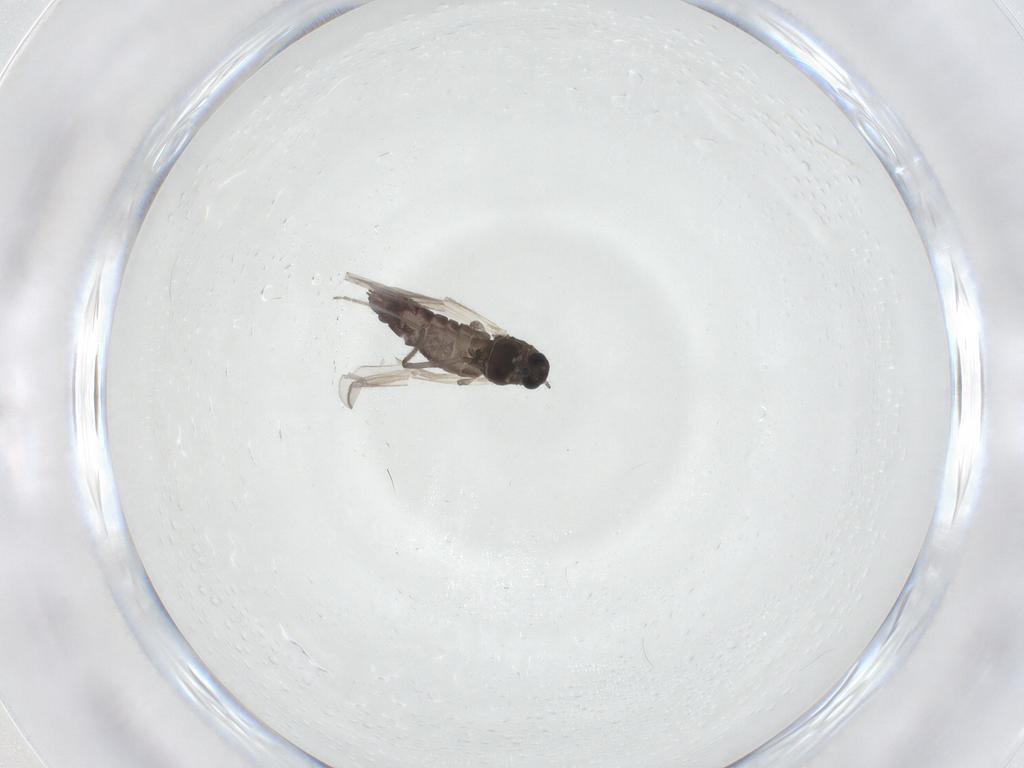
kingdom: Animalia
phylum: Arthropoda
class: Insecta
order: Diptera
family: Chironomidae
